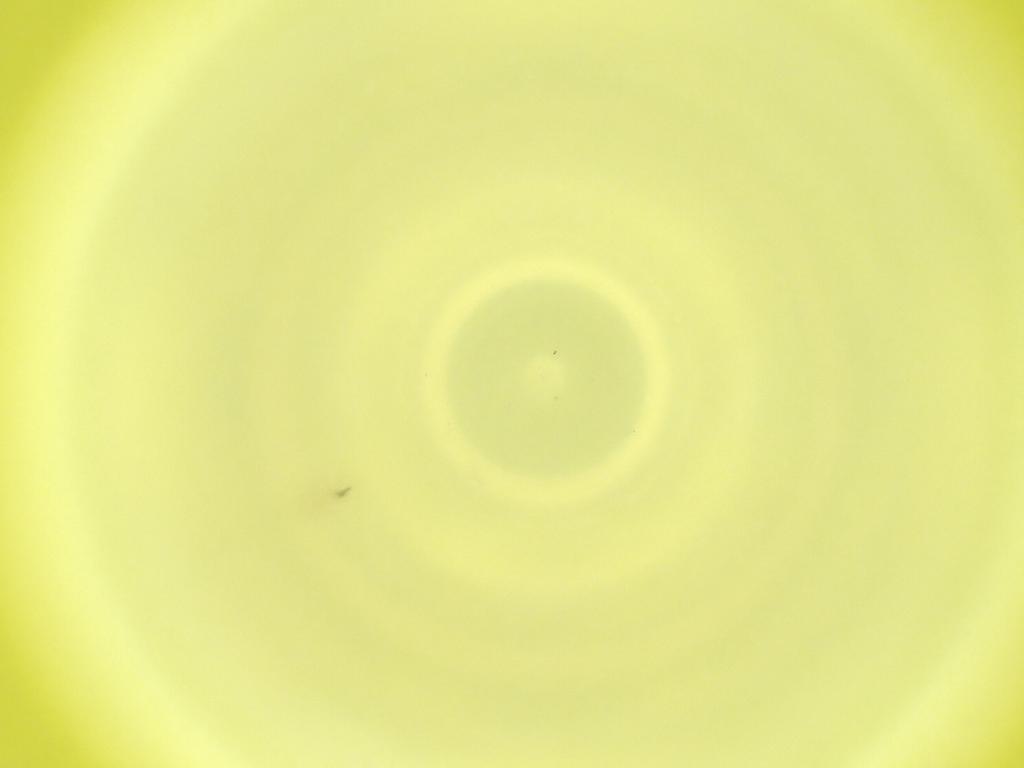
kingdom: Animalia
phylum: Arthropoda
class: Insecta
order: Diptera
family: Cecidomyiidae
